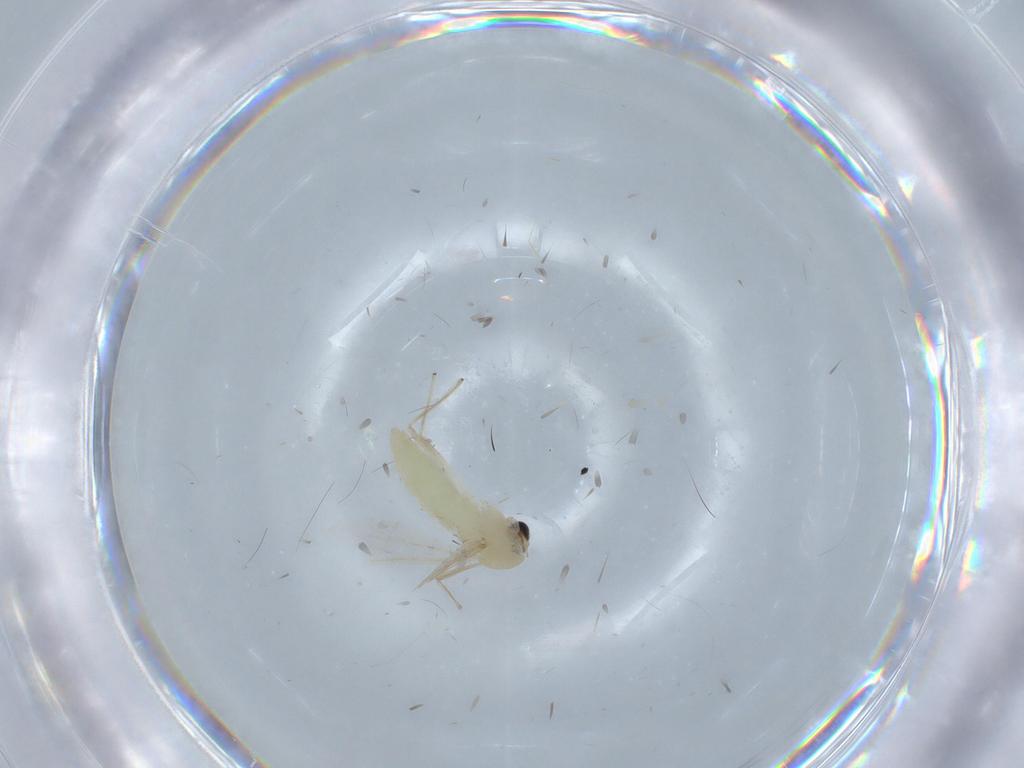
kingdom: Animalia
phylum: Arthropoda
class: Insecta
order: Diptera
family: Chironomidae
